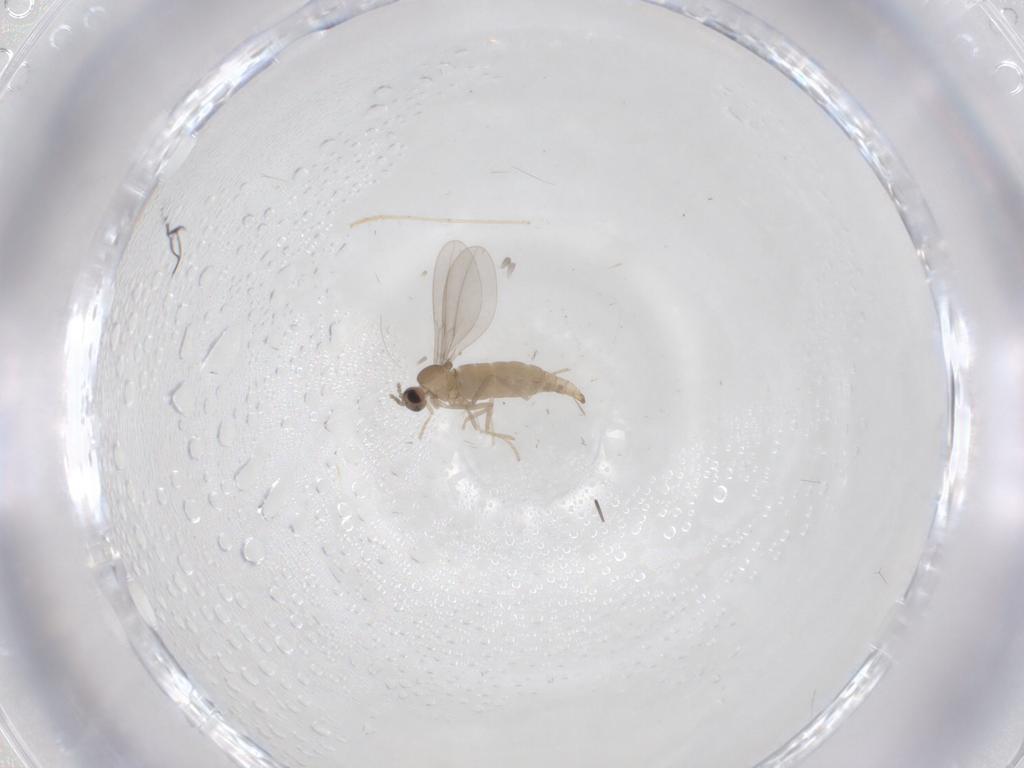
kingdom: Animalia
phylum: Arthropoda
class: Insecta
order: Diptera
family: Cecidomyiidae
